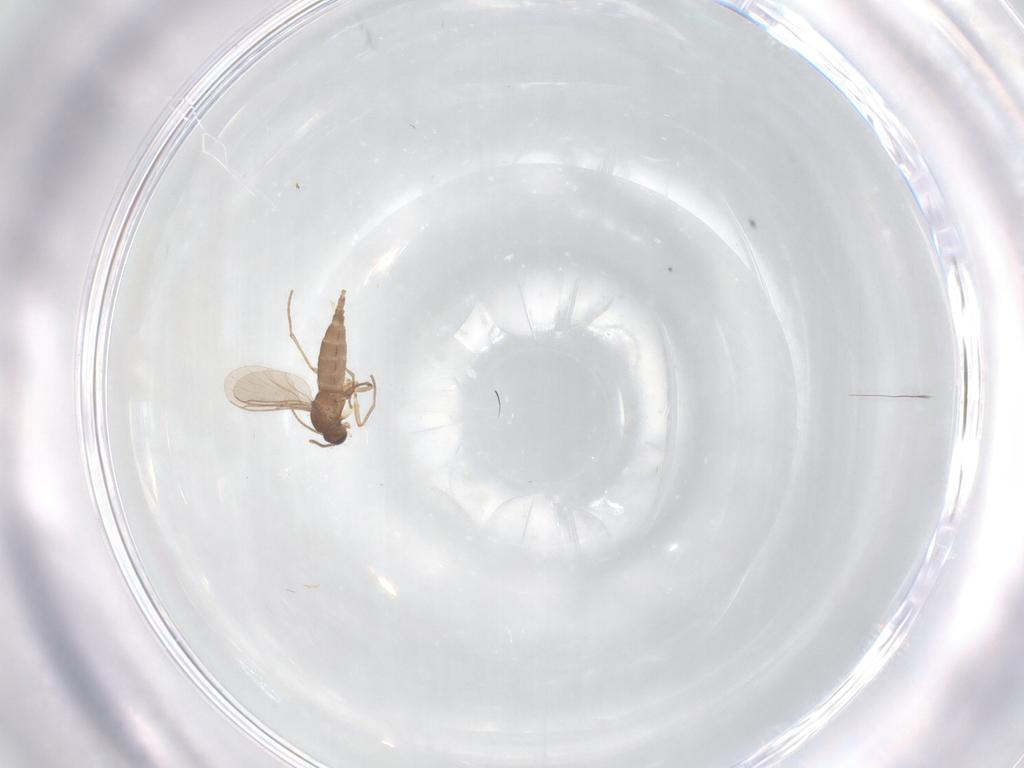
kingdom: Animalia
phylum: Arthropoda
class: Insecta
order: Diptera
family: Sciaridae
